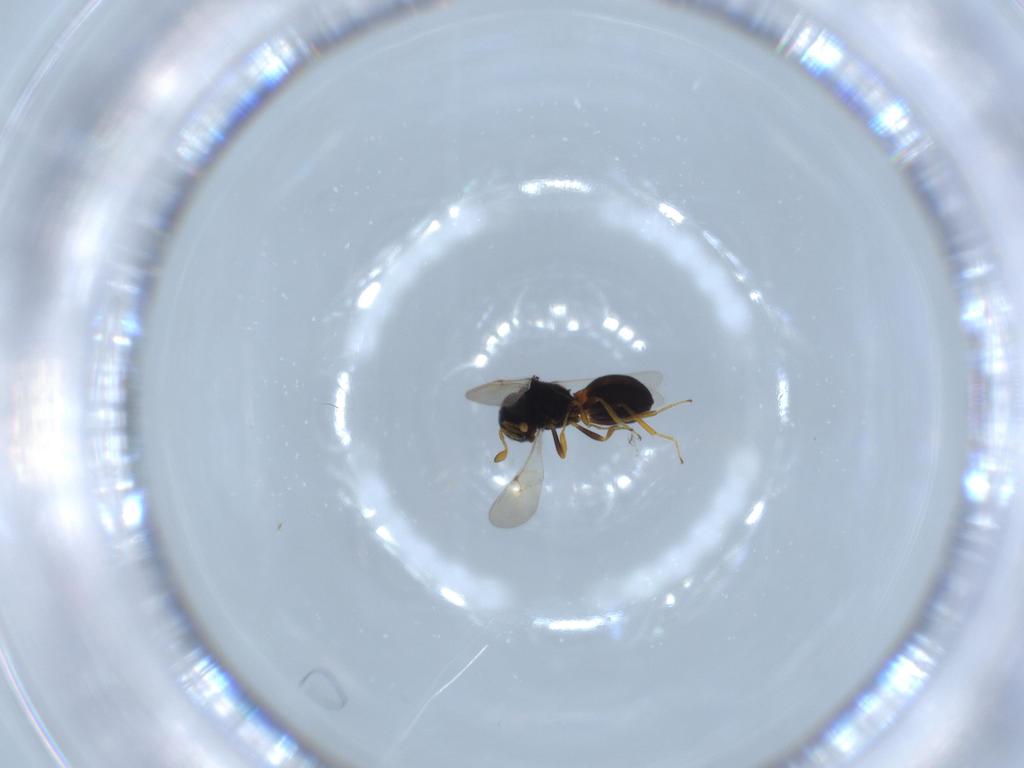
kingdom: Animalia
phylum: Arthropoda
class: Insecta
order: Hymenoptera
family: Scelionidae
